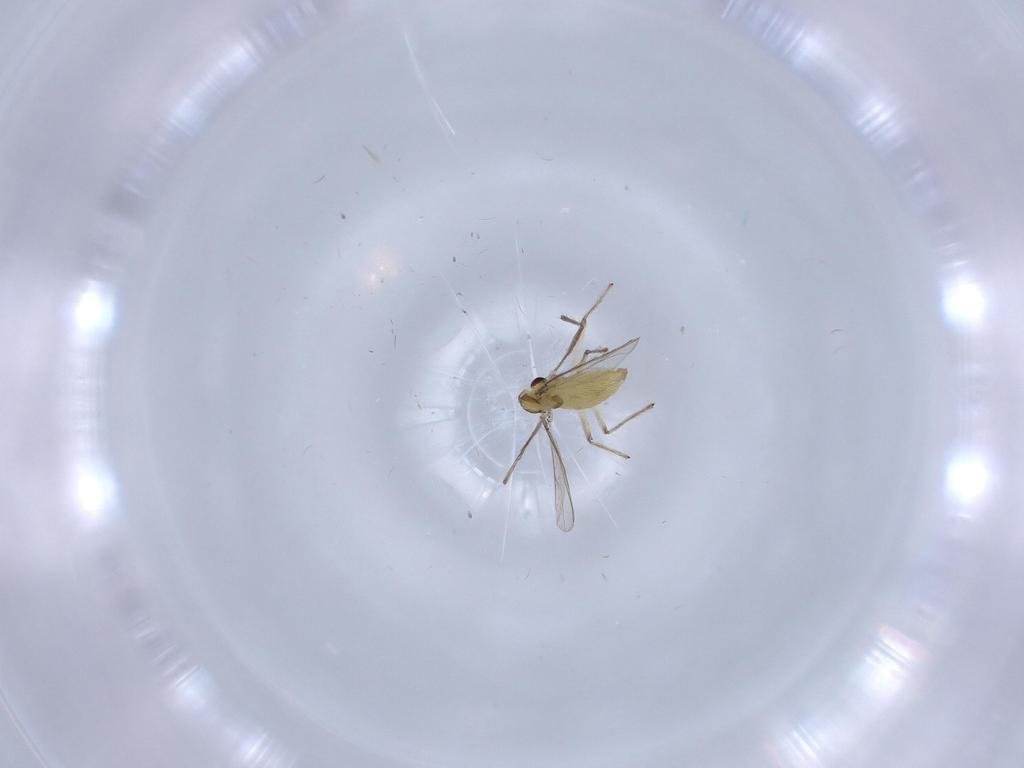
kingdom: Animalia
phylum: Arthropoda
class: Insecta
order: Diptera
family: Chironomidae
